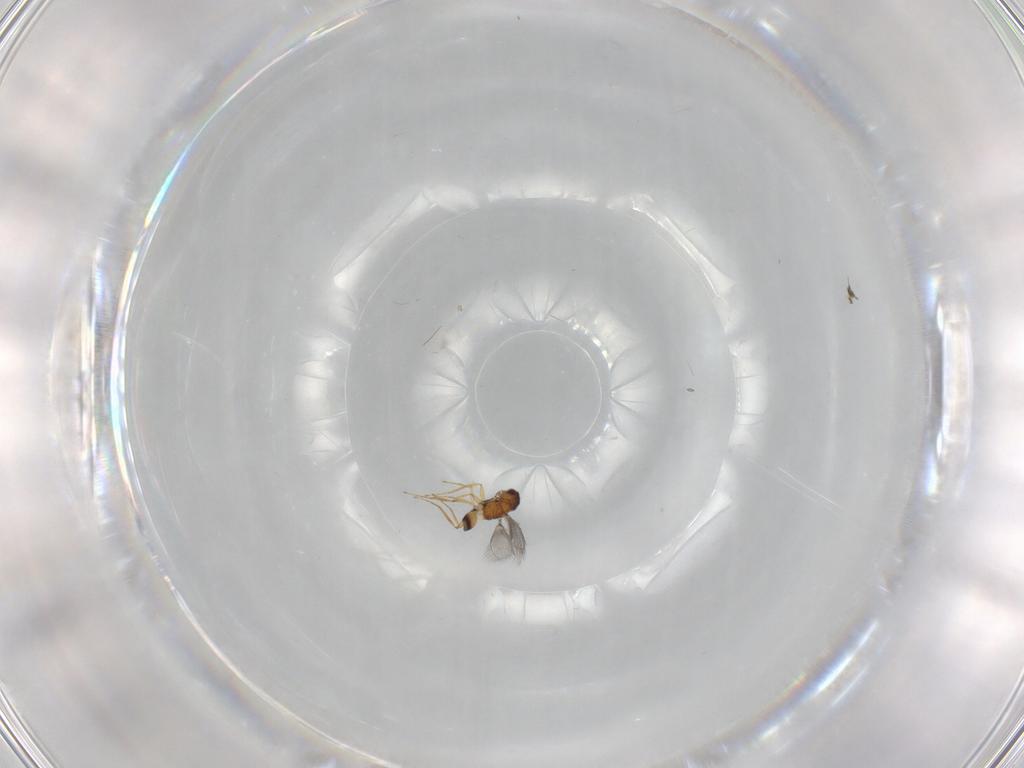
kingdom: Animalia
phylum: Arthropoda
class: Insecta
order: Hymenoptera
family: Mymaridae
